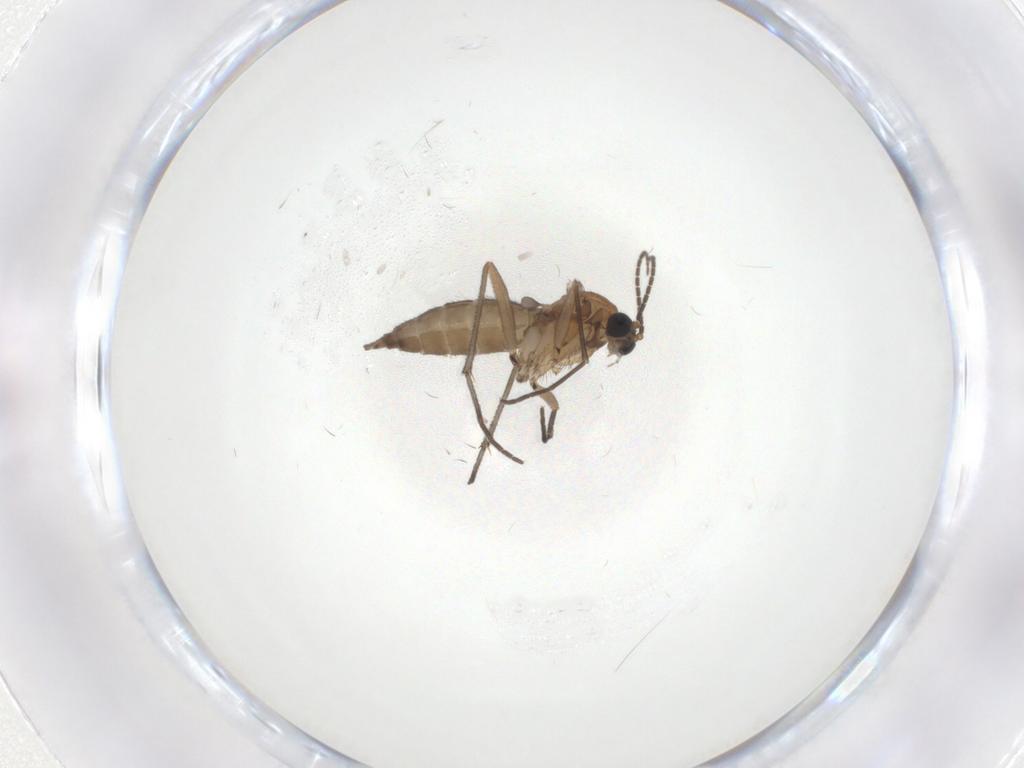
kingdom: Animalia
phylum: Arthropoda
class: Insecta
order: Diptera
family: Sciaridae
